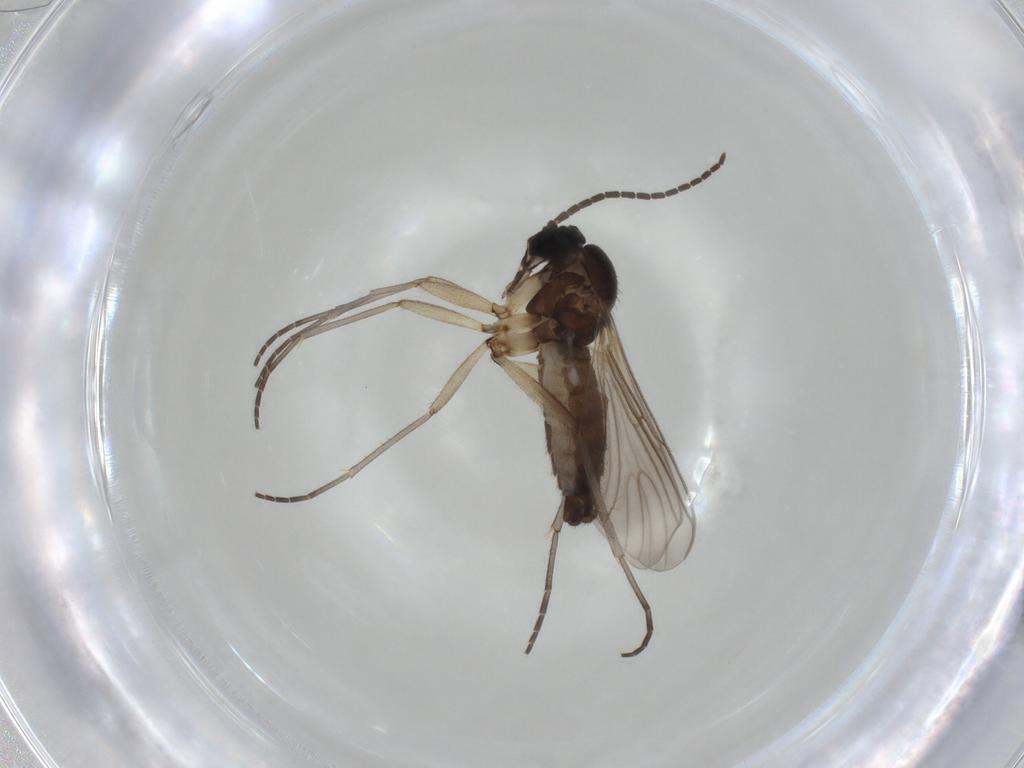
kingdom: Animalia
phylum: Arthropoda
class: Insecta
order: Diptera
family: Sciaridae
